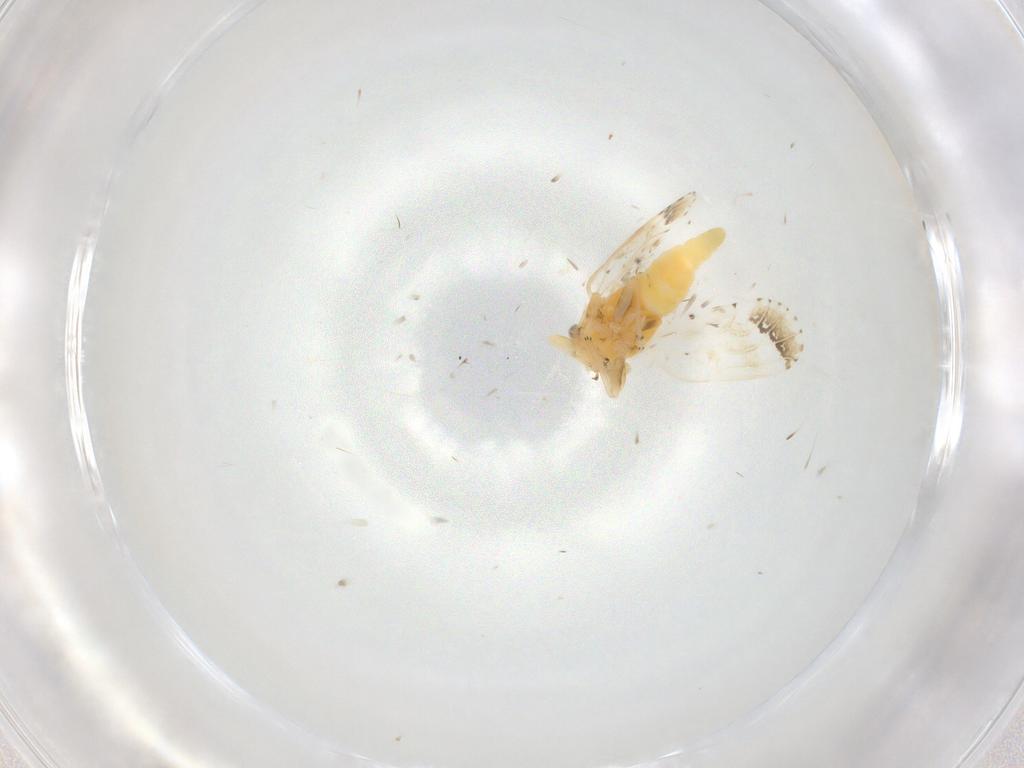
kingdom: Animalia
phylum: Arthropoda
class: Insecta
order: Hemiptera
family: Psyllidae
